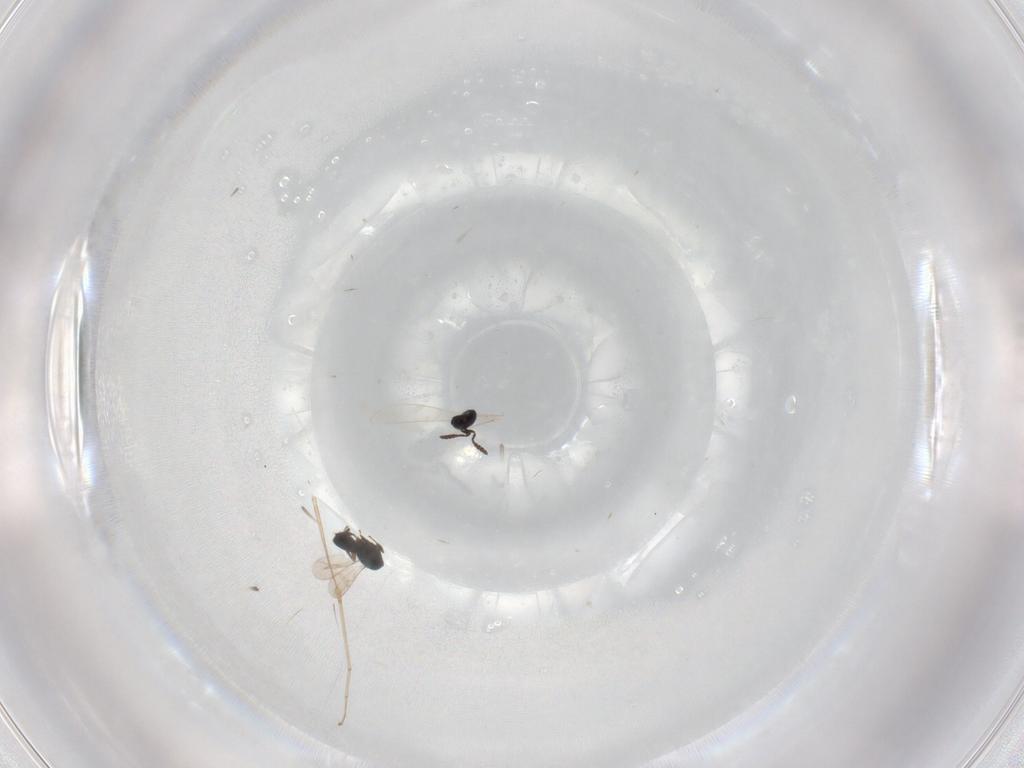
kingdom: Animalia
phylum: Arthropoda
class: Insecta
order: Hymenoptera
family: Scelionidae
